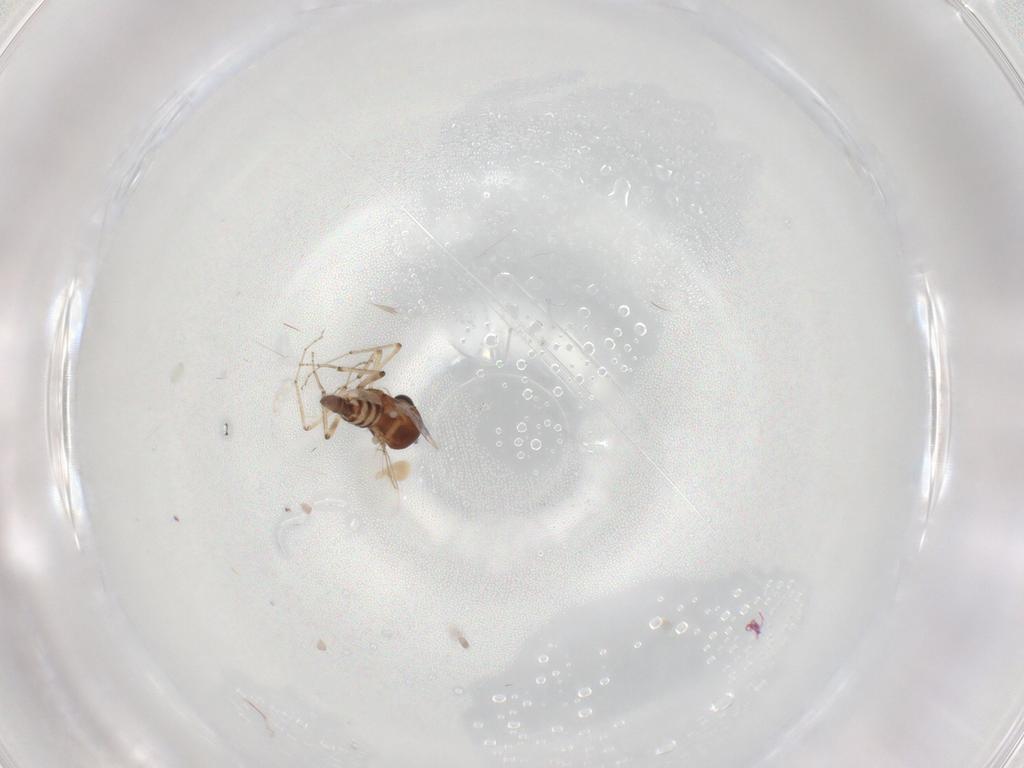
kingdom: Animalia
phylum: Arthropoda
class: Insecta
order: Diptera
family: Ceratopogonidae
